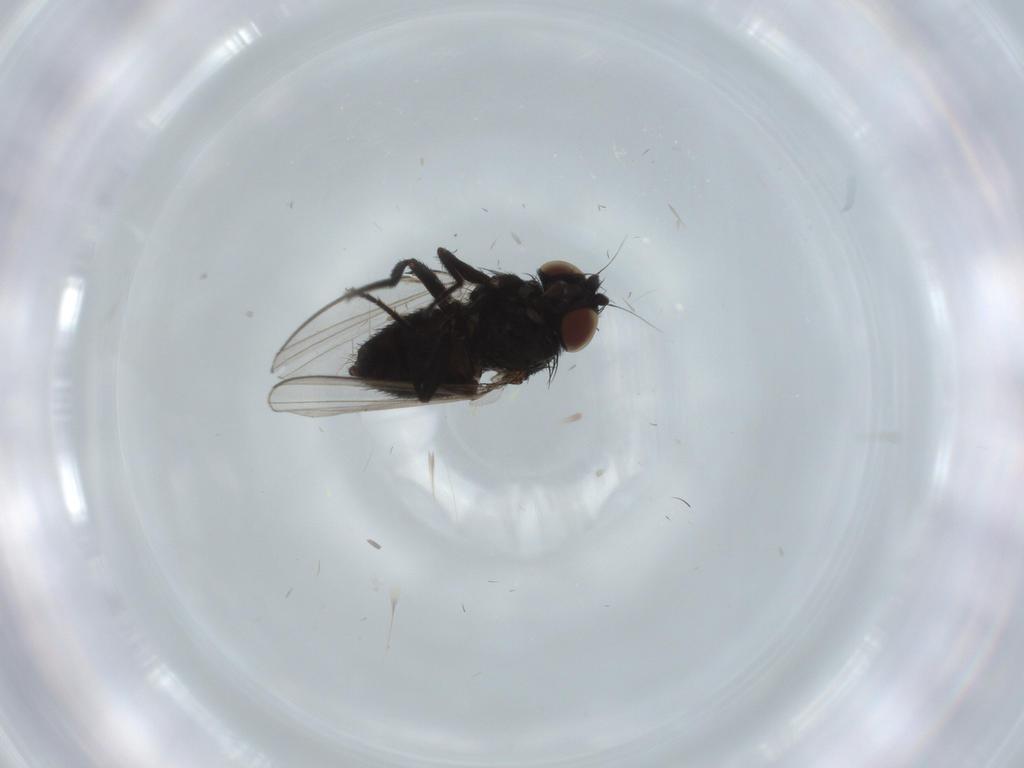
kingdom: Animalia
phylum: Arthropoda
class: Insecta
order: Diptera
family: Milichiidae
